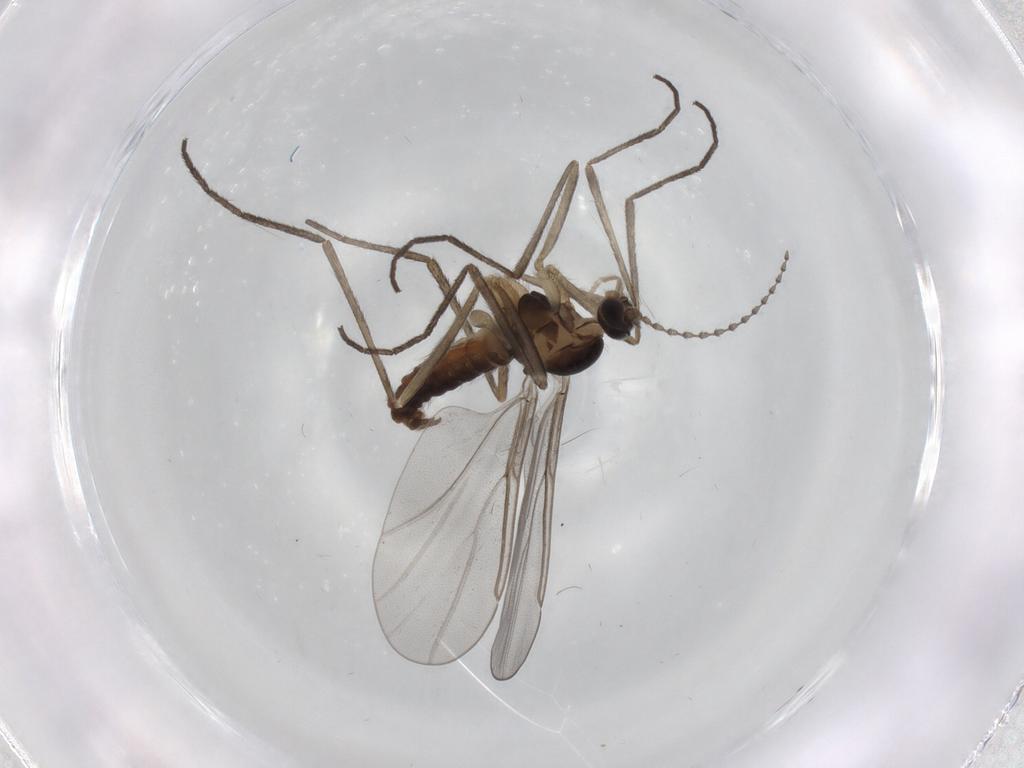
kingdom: Animalia
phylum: Arthropoda
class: Insecta
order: Diptera
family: Cecidomyiidae
